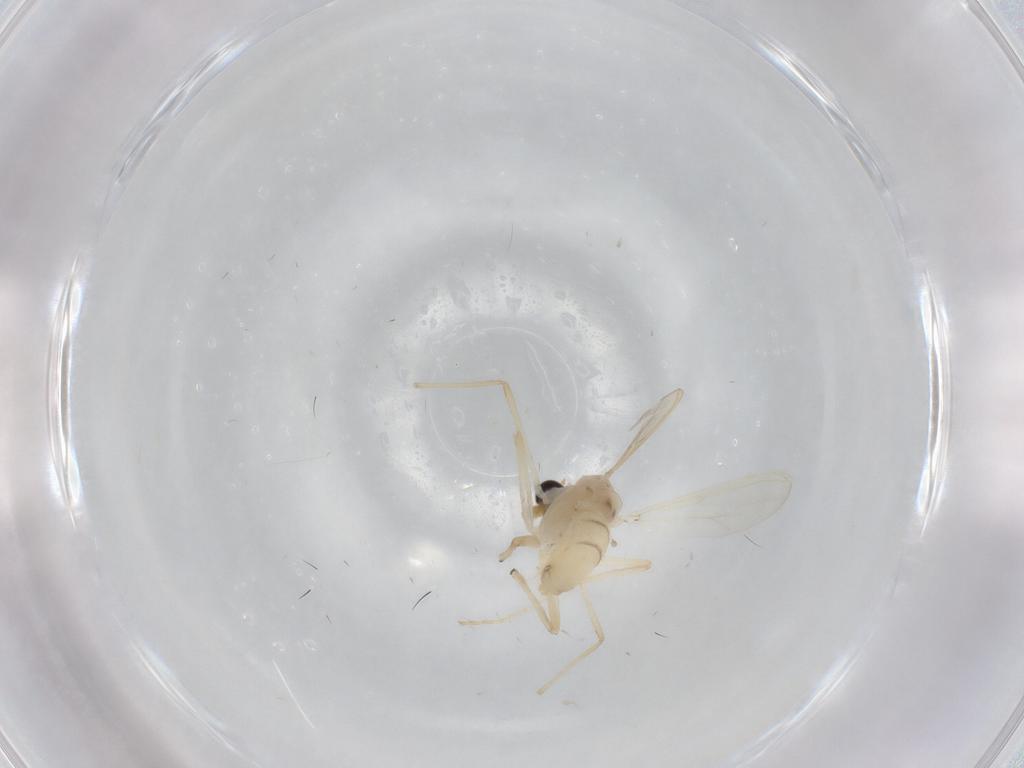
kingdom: Animalia
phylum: Arthropoda
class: Insecta
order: Diptera
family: Chironomidae
